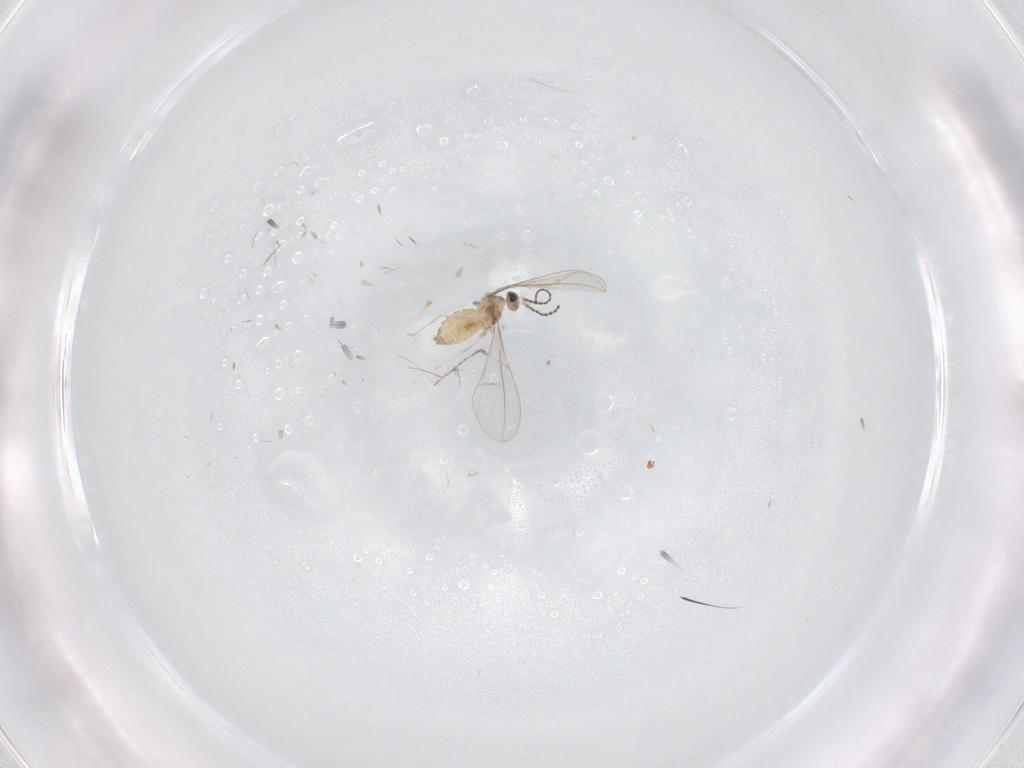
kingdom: Animalia
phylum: Arthropoda
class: Insecta
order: Diptera
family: Cecidomyiidae
